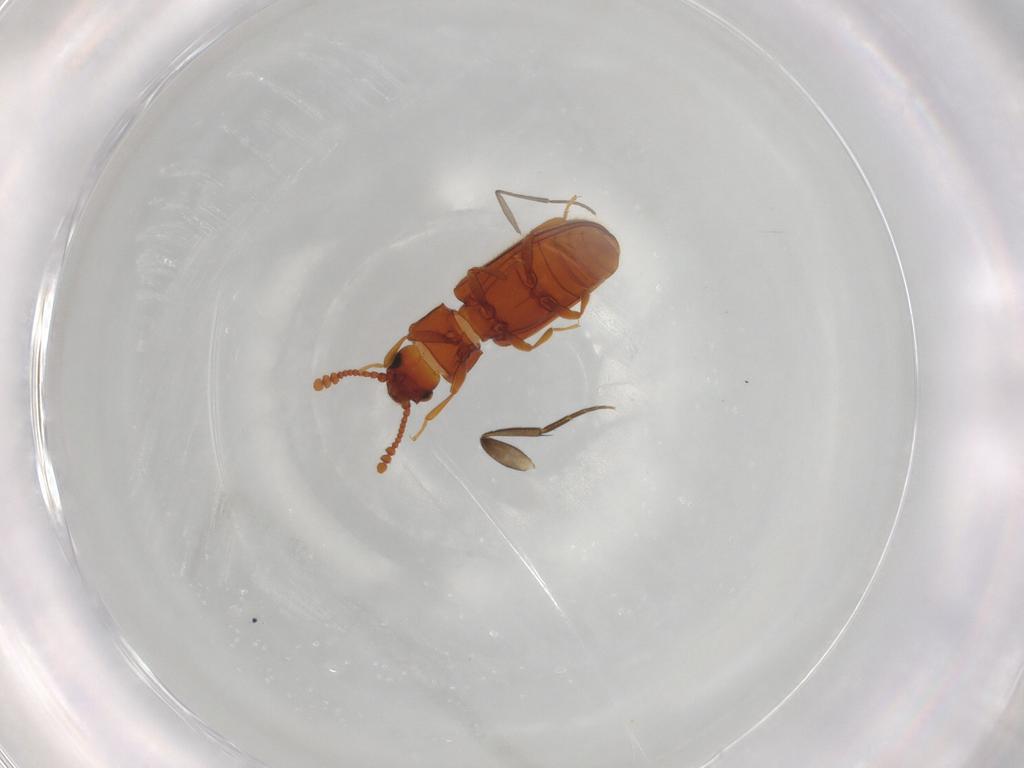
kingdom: Animalia
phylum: Arthropoda
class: Insecta
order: Coleoptera
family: Erotylidae
